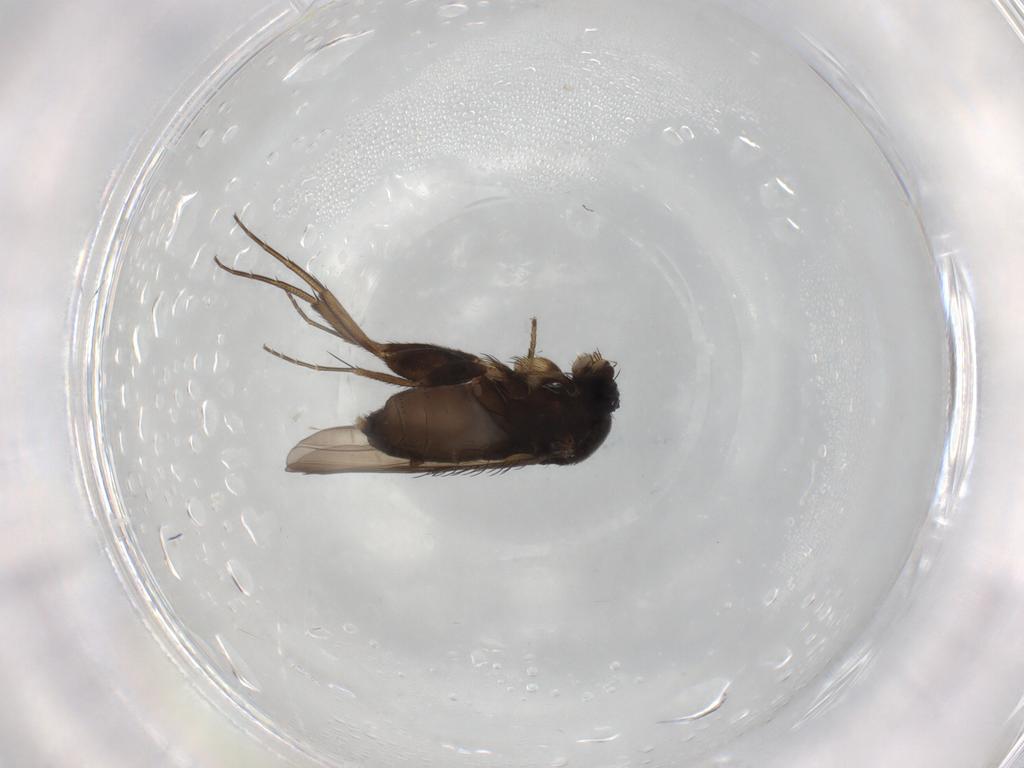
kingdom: Animalia
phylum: Arthropoda
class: Insecta
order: Diptera
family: Phoridae
